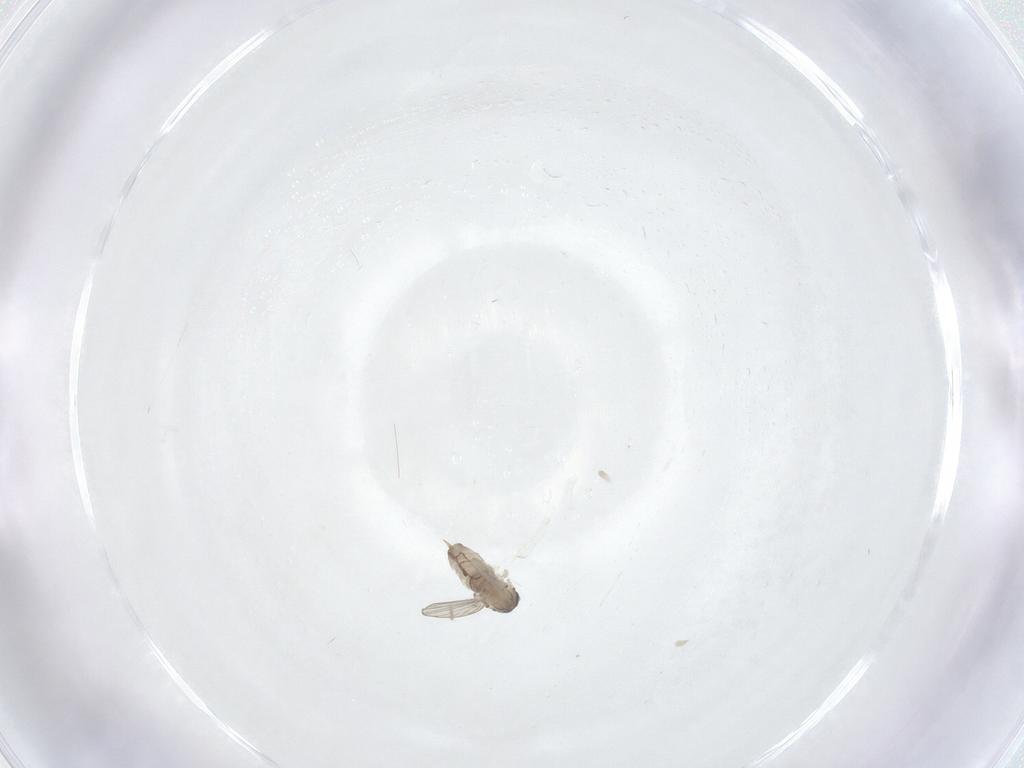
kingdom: Animalia
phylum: Arthropoda
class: Insecta
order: Diptera
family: Psychodidae
